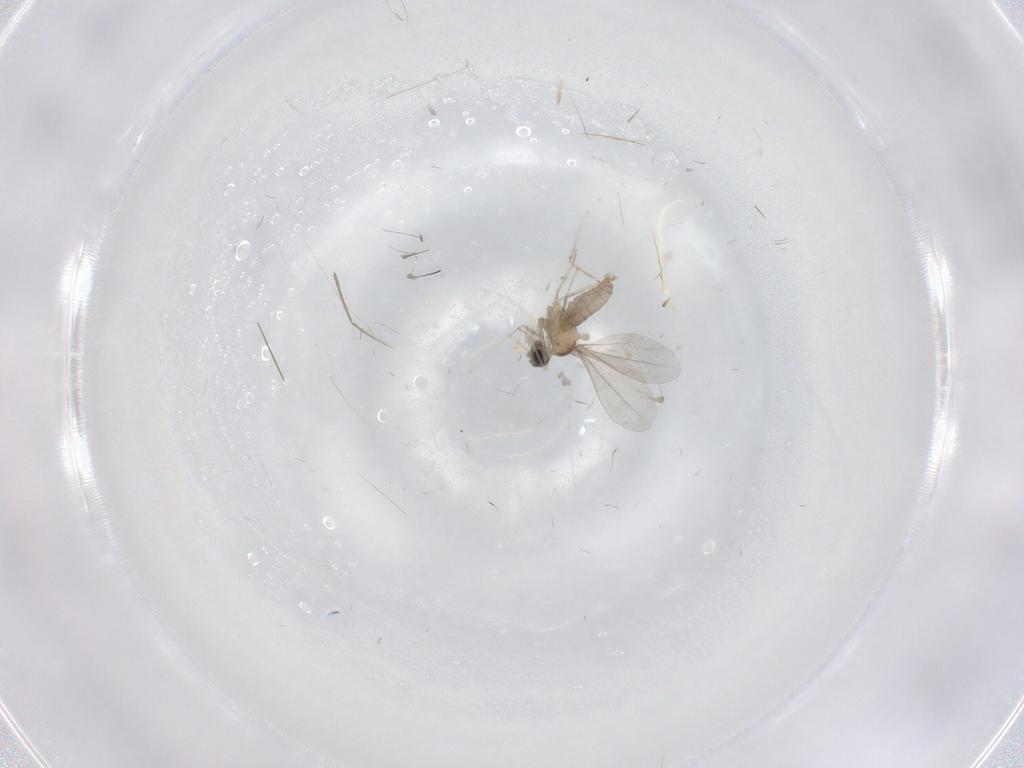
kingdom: Animalia
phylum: Arthropoda
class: Insecta
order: Diptera
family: Cecidomyiidae
